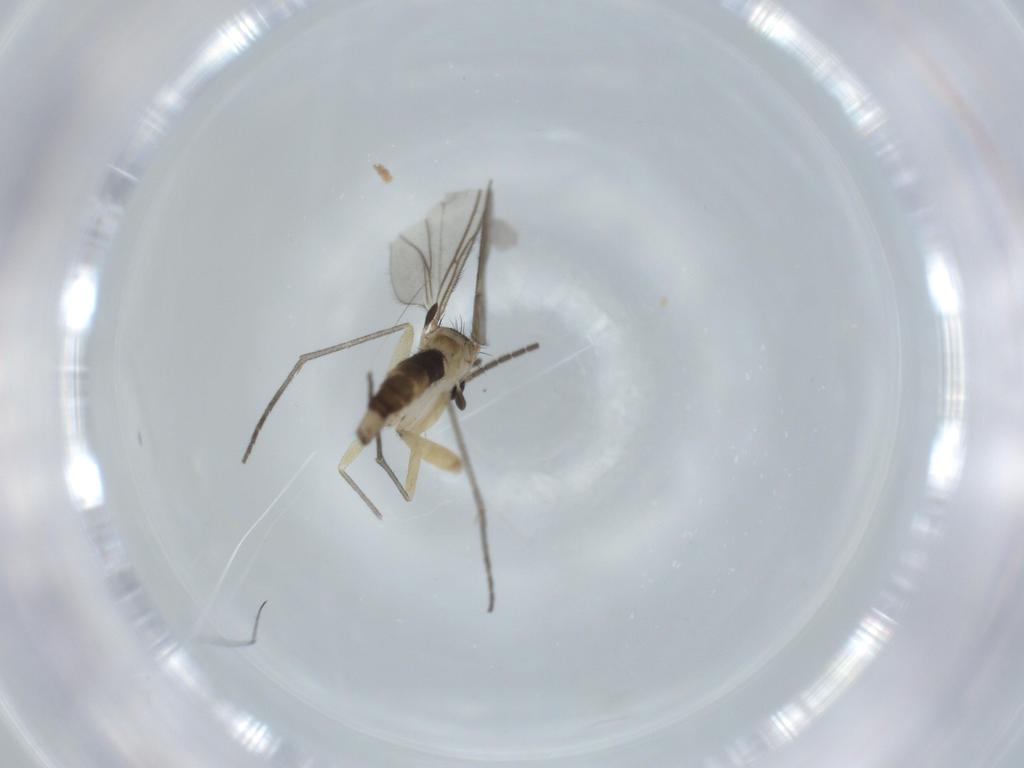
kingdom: Animalia
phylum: Arthropoda
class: Insecta
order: Diptera
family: Sciaridae
